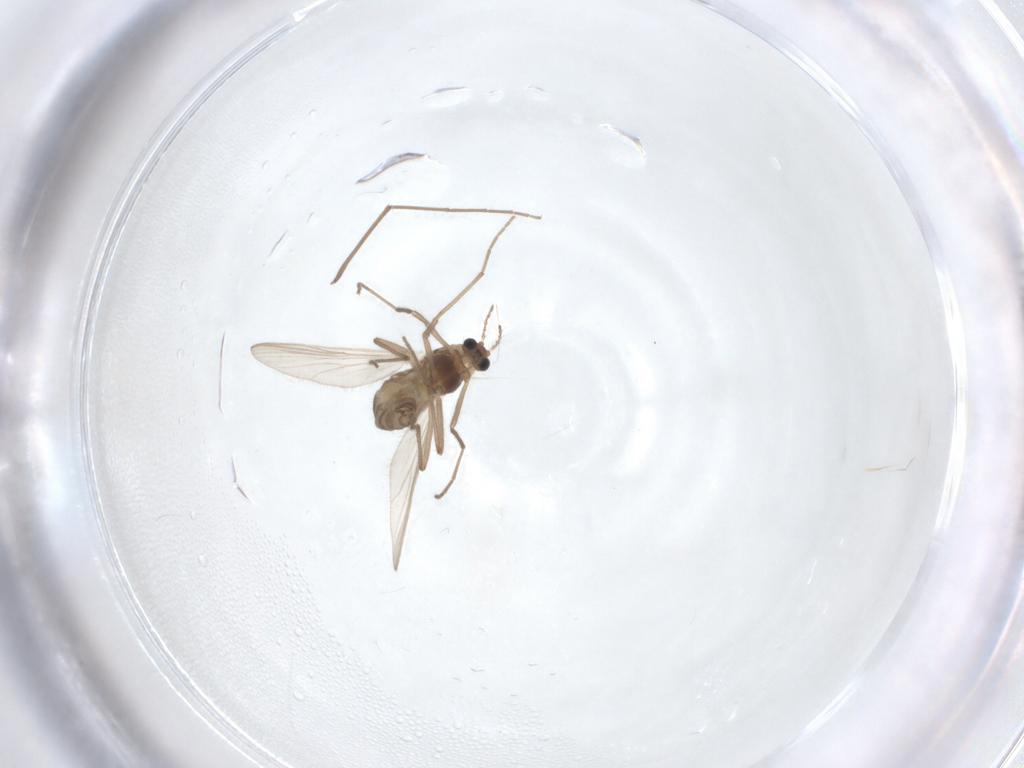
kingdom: Animalia
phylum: Arthropoda
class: Insecta
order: Diptera
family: Chironomidae
